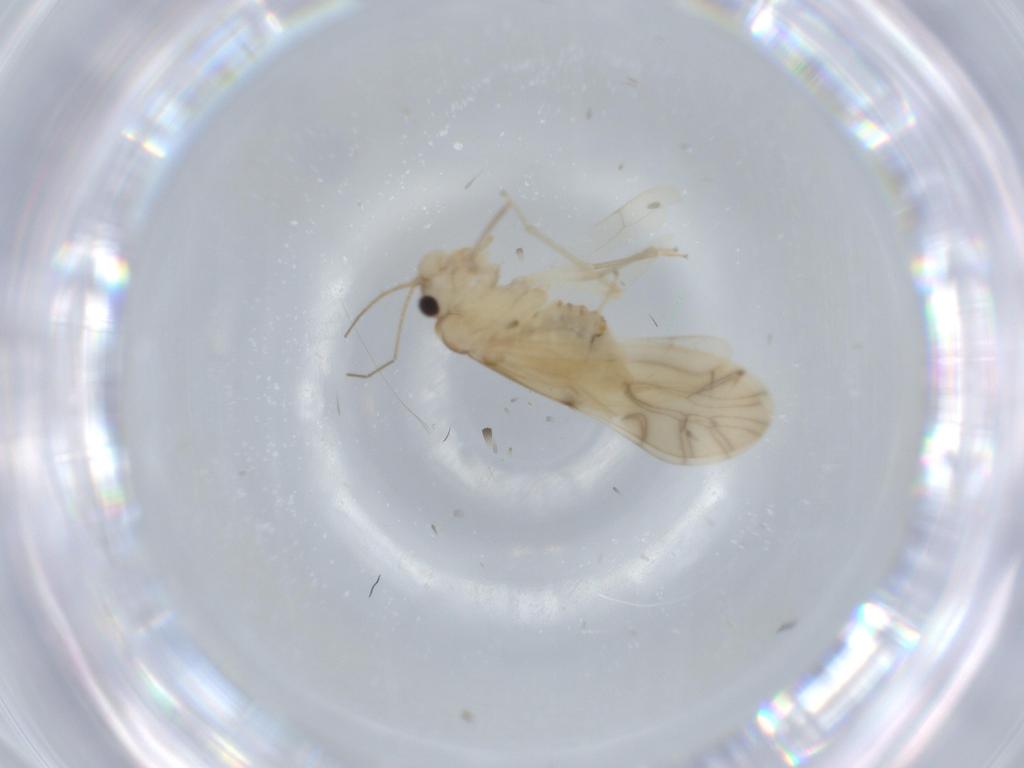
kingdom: Animalia
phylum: Arthropoda
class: Insecta
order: Psocodea
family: Caeciliusidae
